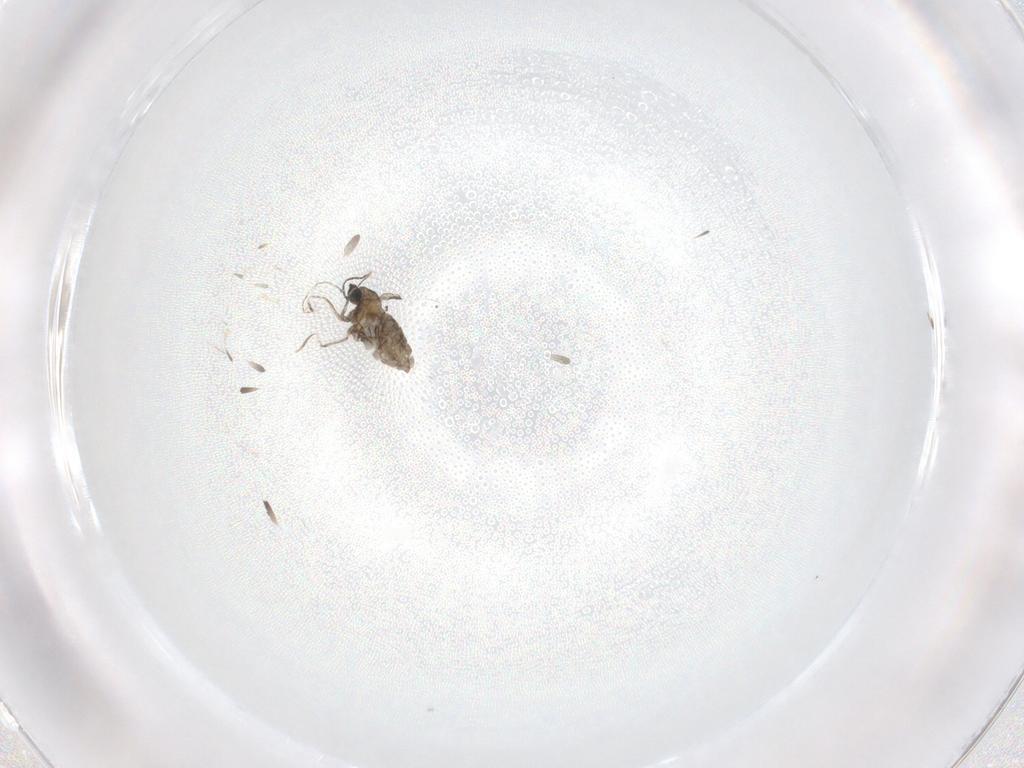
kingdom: Animalia
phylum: Arthropoda
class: Insecta
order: Diptera
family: Cecidomyiidae
